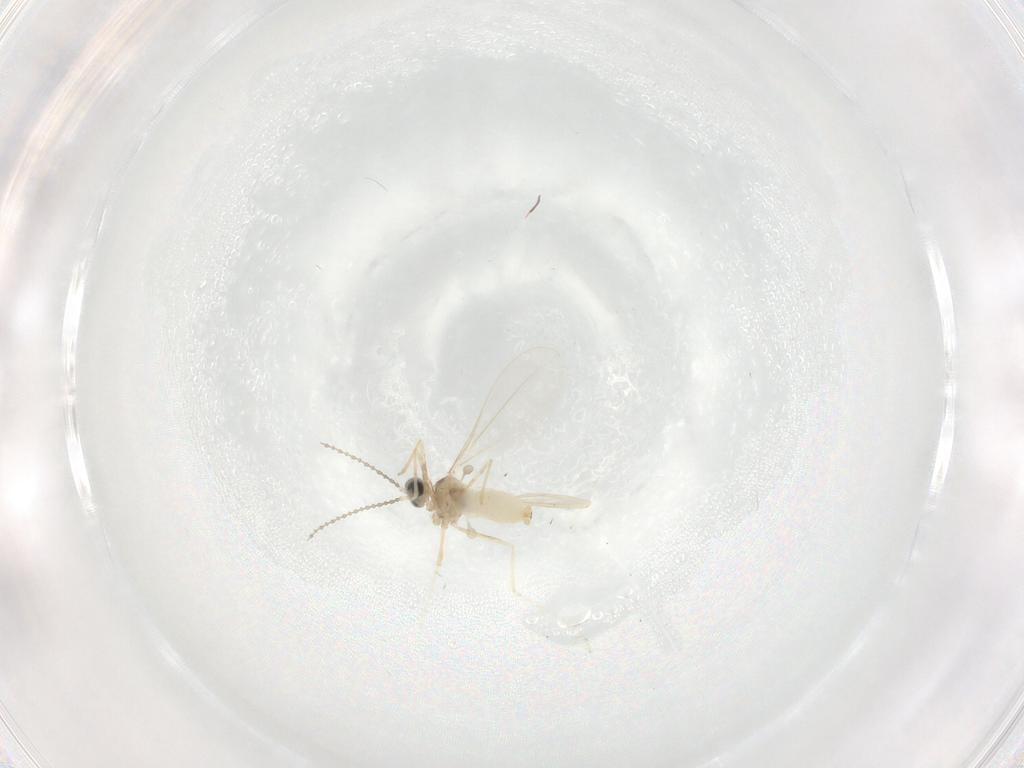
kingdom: Animalia
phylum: Arthropoda
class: Insecta
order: Diptera
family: Cecidomyiidae
